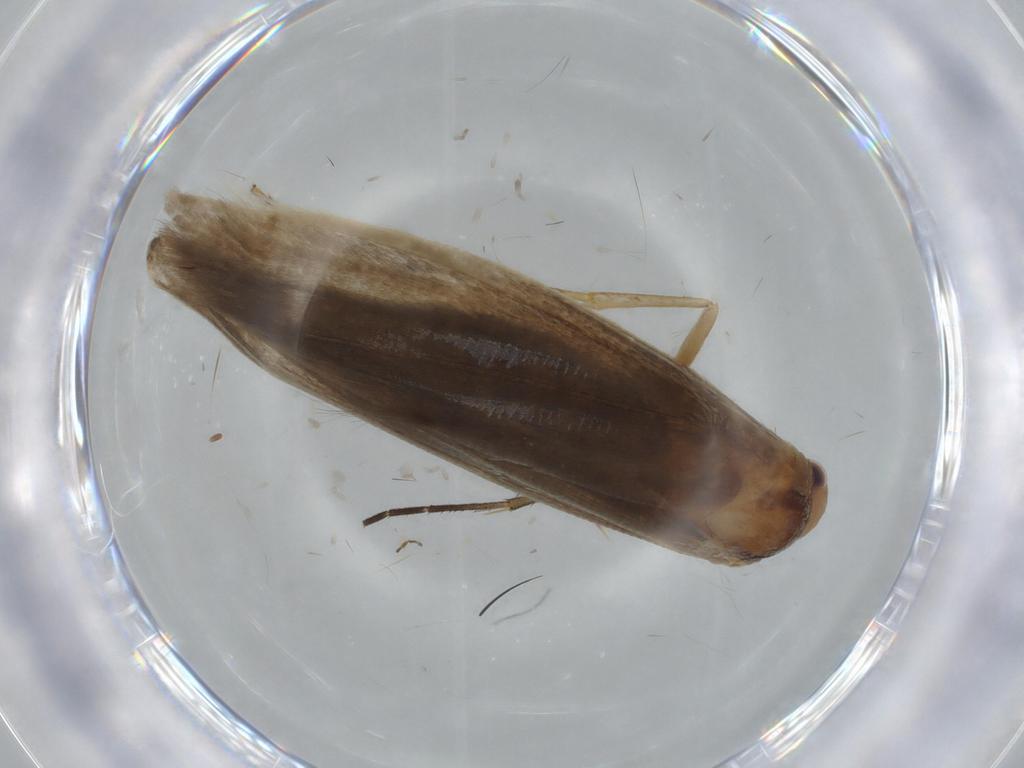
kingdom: Animalia
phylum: Arthropoda
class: Insecta
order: Lepidoptera
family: Argyresthiidae
